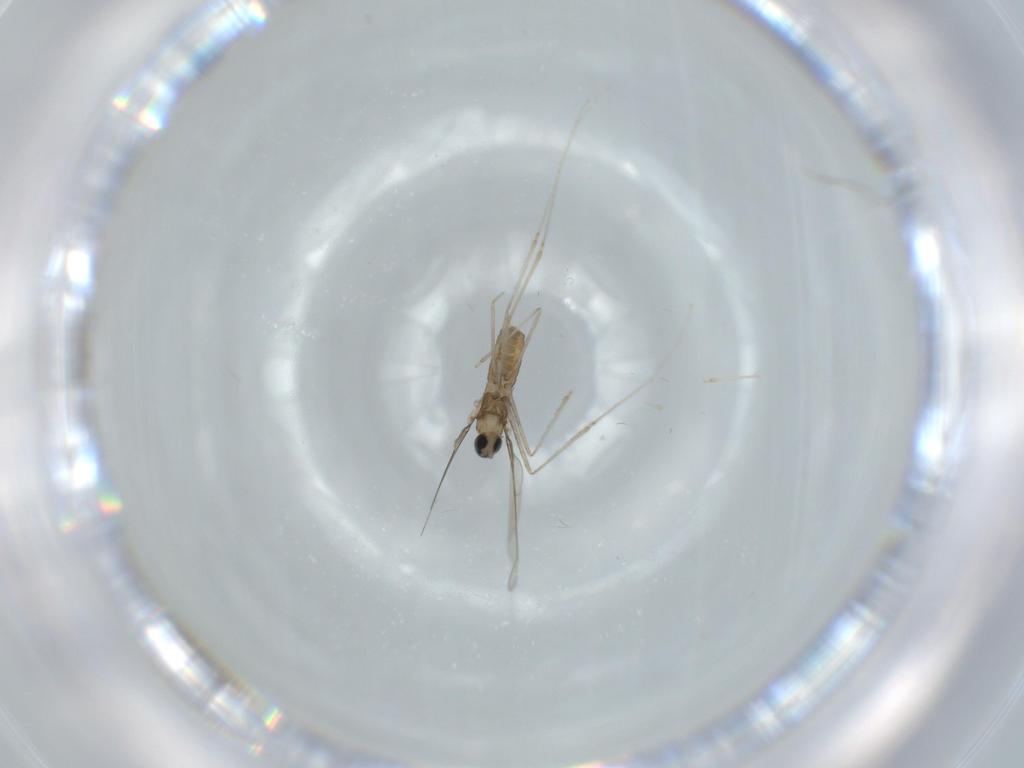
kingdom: Animalia
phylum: Arthropoda
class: Insecta
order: Diptera
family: Cecidomyiidae
